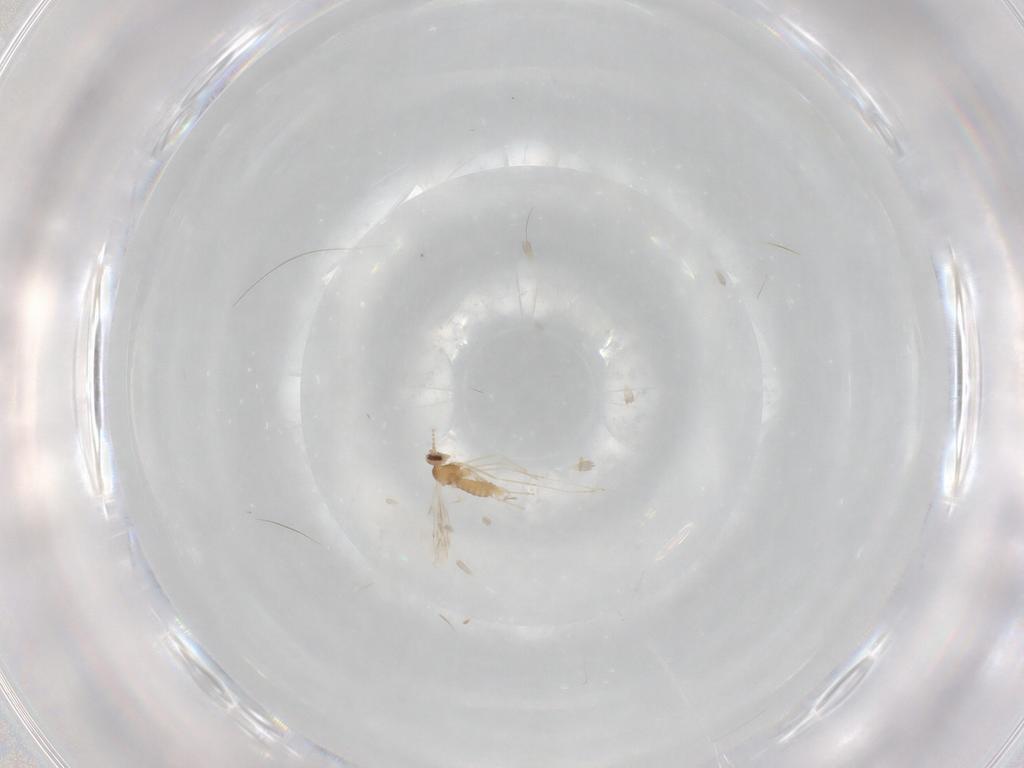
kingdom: Animalia
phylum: Arthropoda
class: Insecta
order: Diptera
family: Psychodidae
